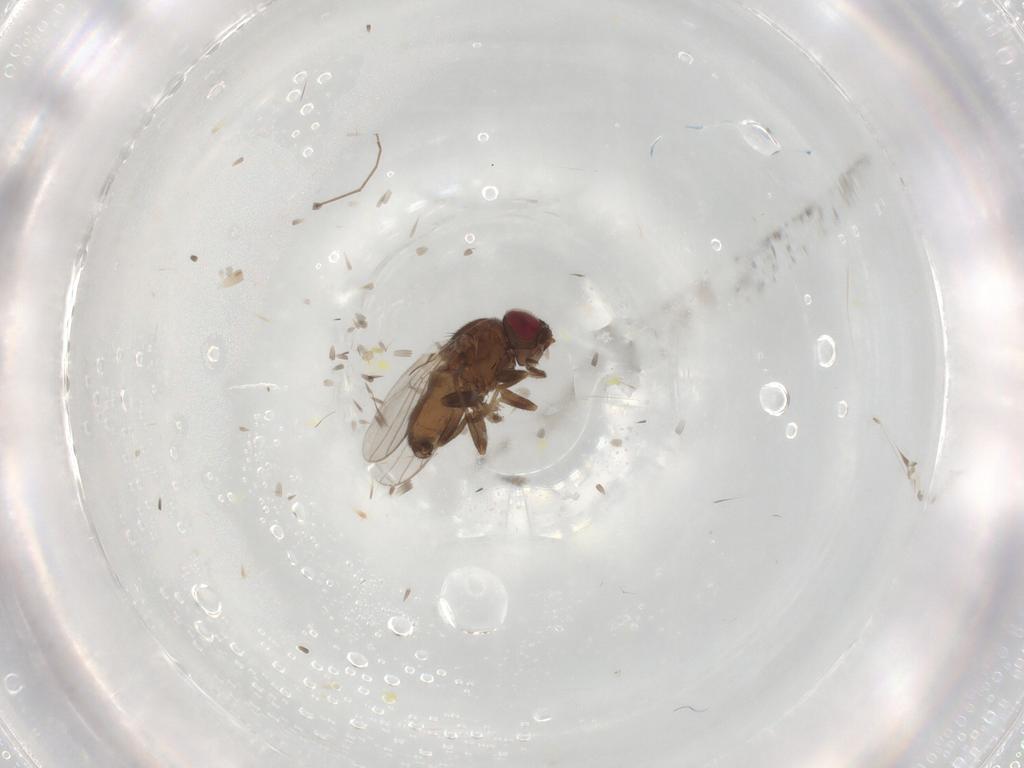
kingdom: Animalia
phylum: Arthropoda
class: Insecta
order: Diptera
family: Chloropidae
